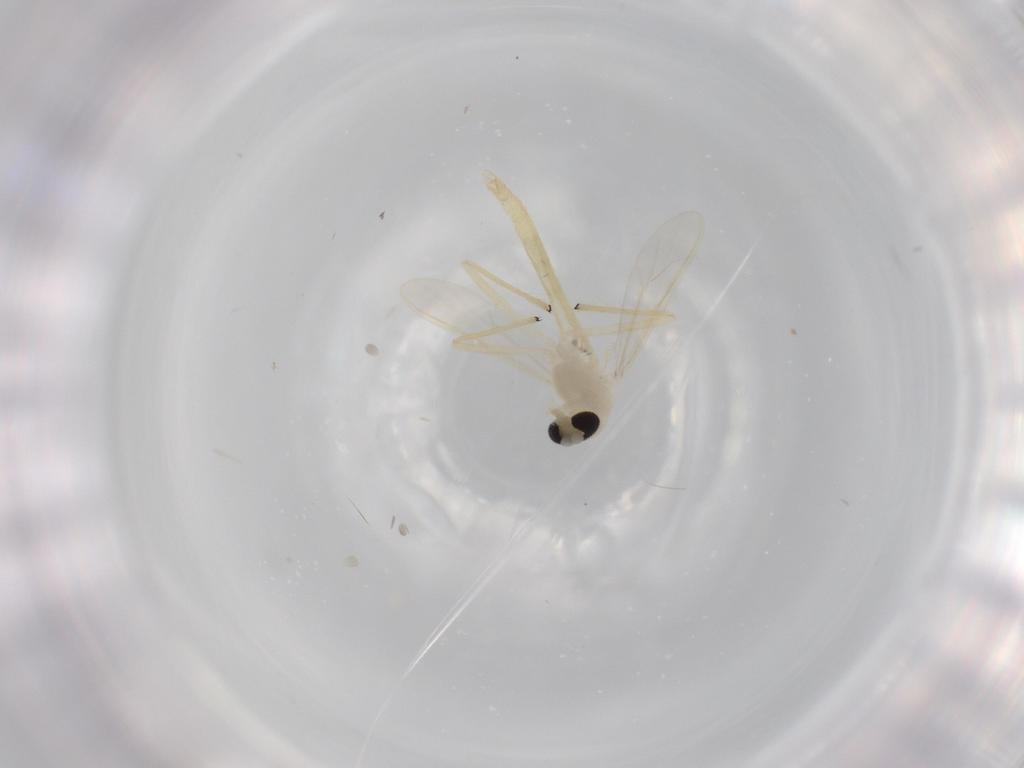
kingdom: Animalia
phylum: Arthropoda
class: Insecta
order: Diptera
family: Chironomidae
